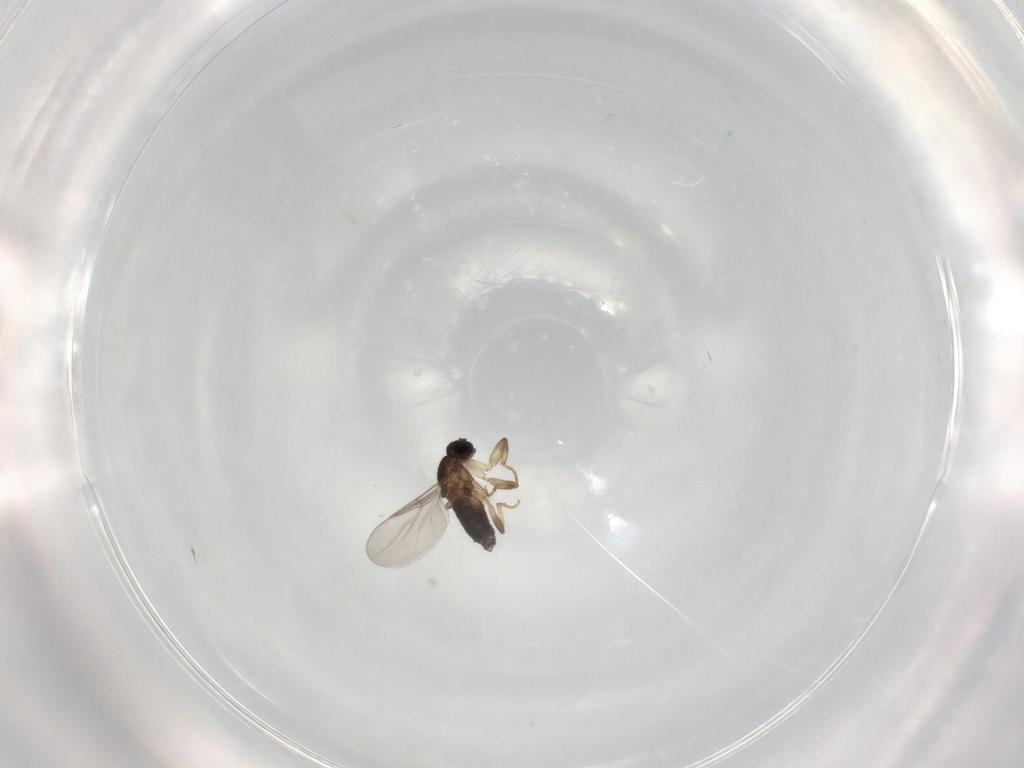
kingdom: Animalia
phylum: Arthropoda
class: Insecta
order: Diptera
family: Scatopsidae
